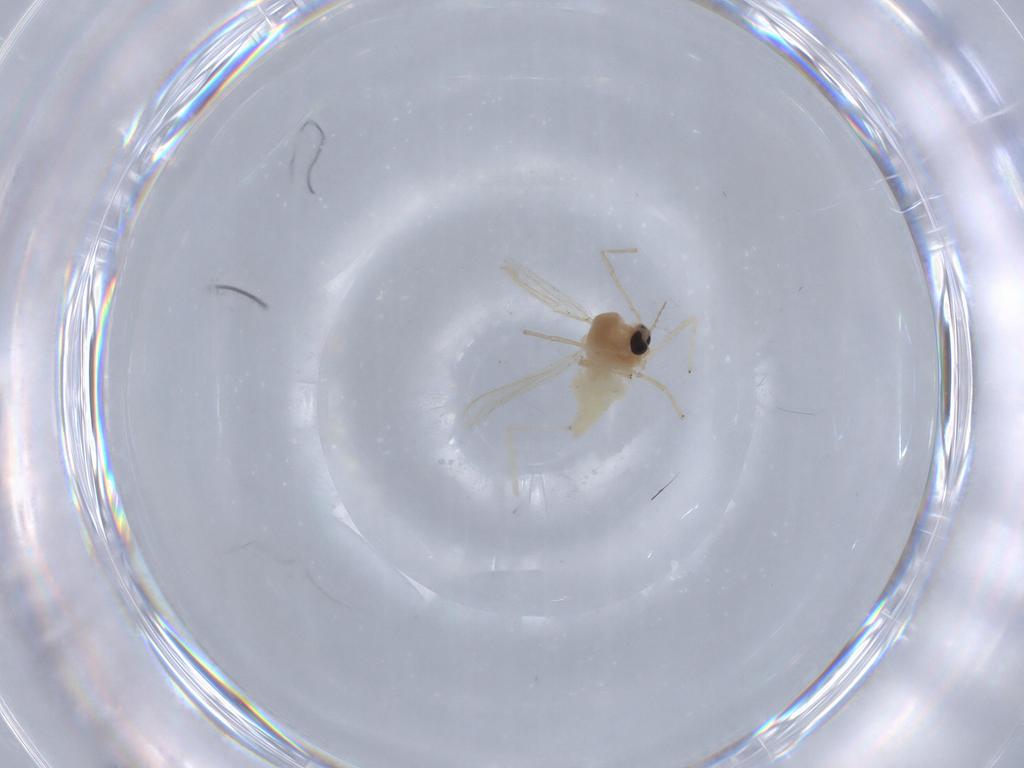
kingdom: Animalia
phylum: Arthropoda
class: Insecta
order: Diptera
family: Chironomidae
